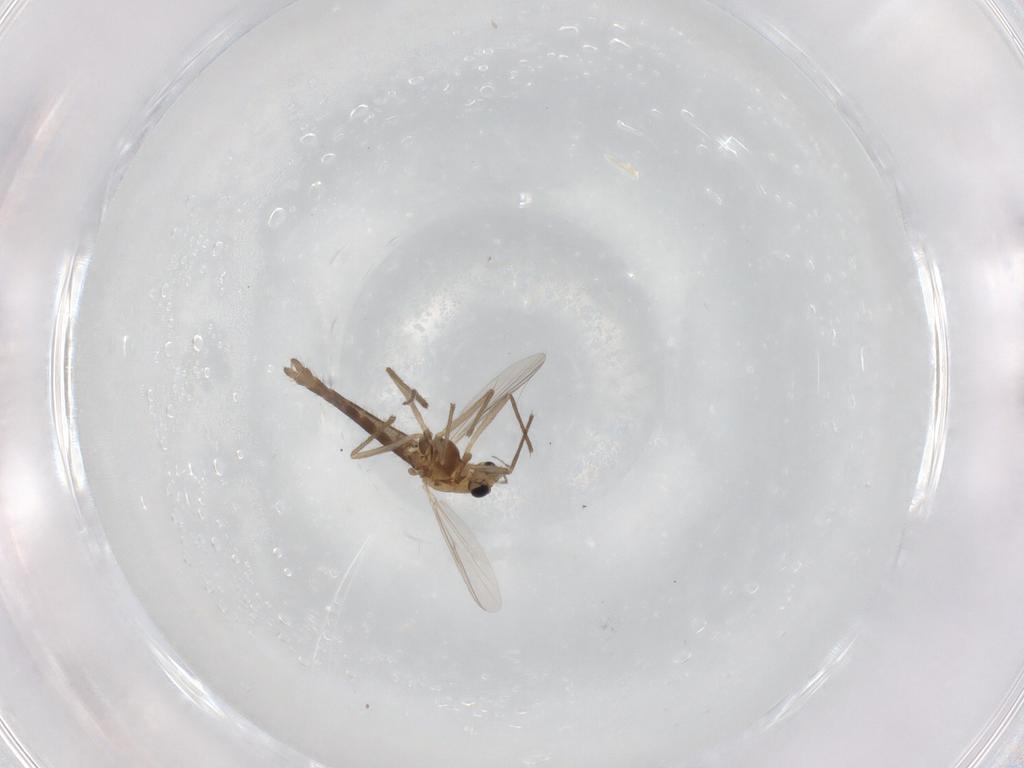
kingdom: Animalia
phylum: Arthropoda
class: Insecta
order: Diptera
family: Chironomidae
